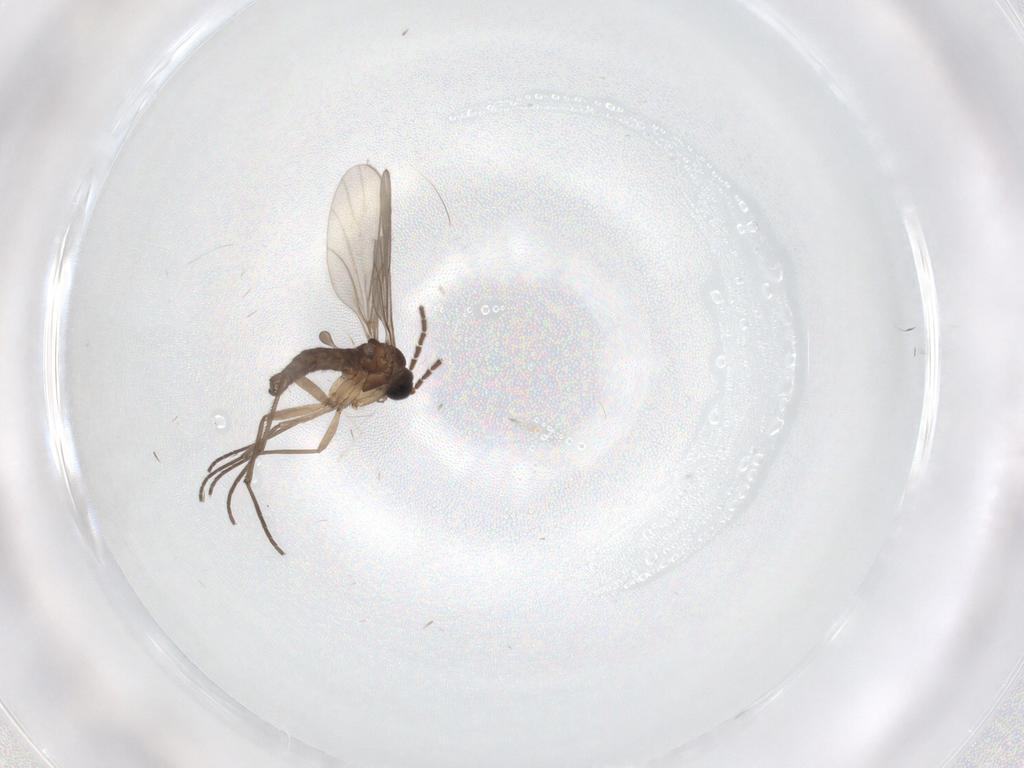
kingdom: Animalia
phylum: Arthropoda
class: Insecta
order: Diptera
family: Cecidomyiidae
